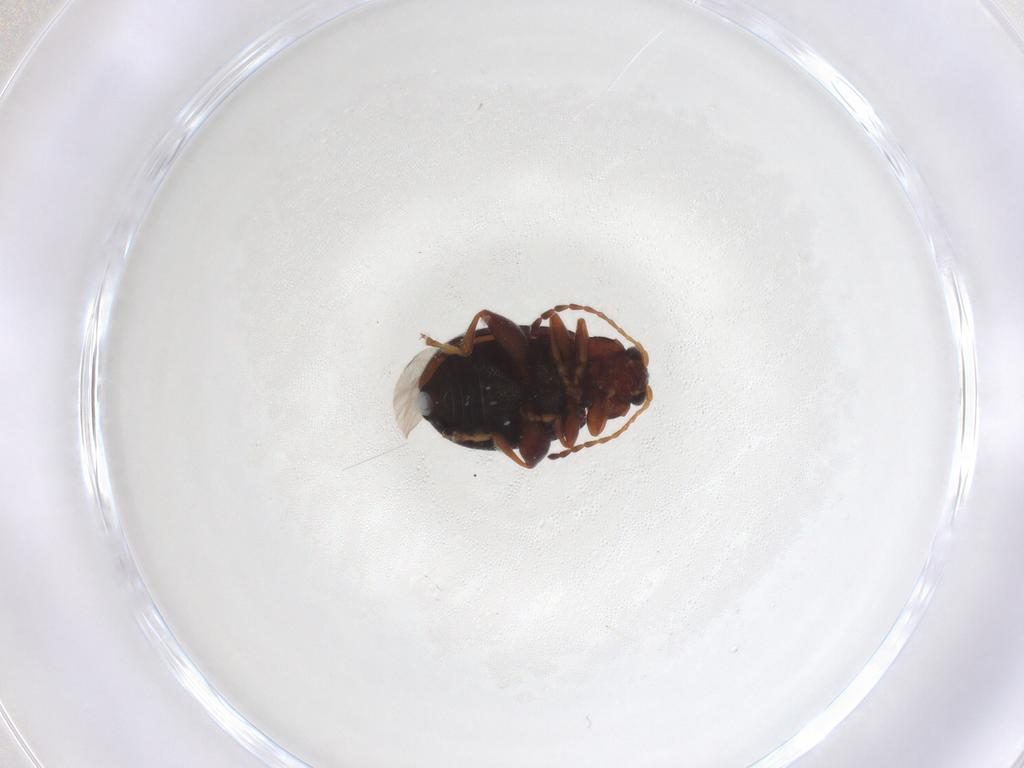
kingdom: Animalia
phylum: Arthropoda
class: Insecta
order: Coleoptera
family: Chrysomelidae
